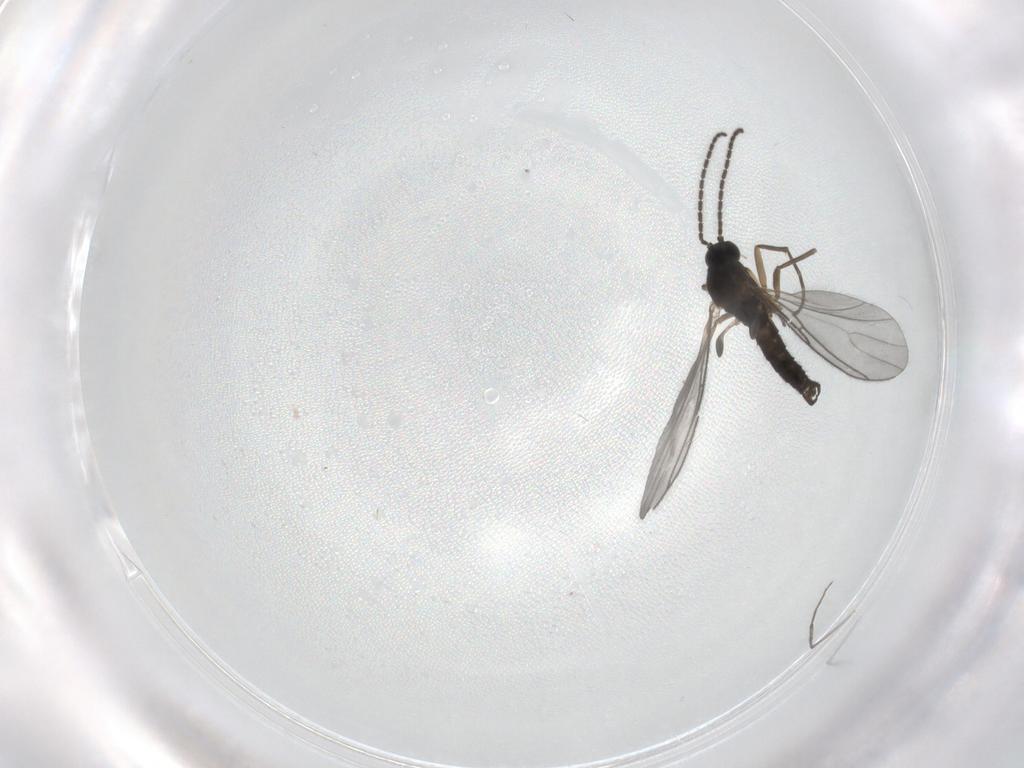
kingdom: Animalia
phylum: Arthropoda
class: Insecta
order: Diptera
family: Sciaridae
